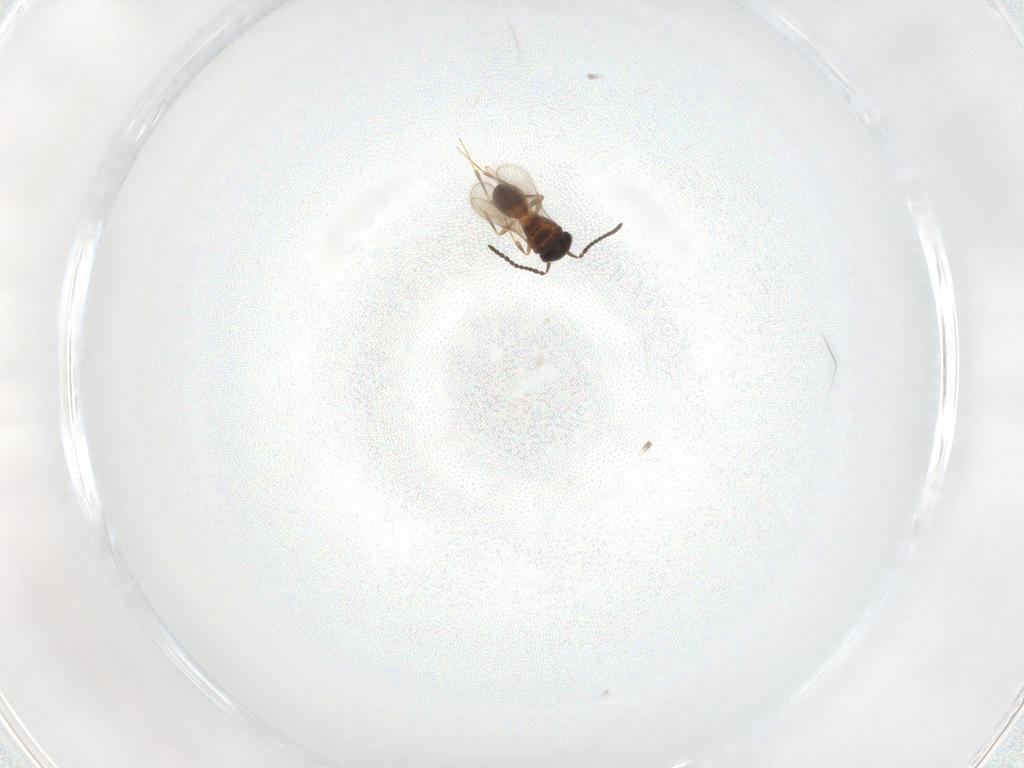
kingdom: Animalia
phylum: Arthropoda
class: Insecta
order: Hymenoptera
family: Scelionidae
